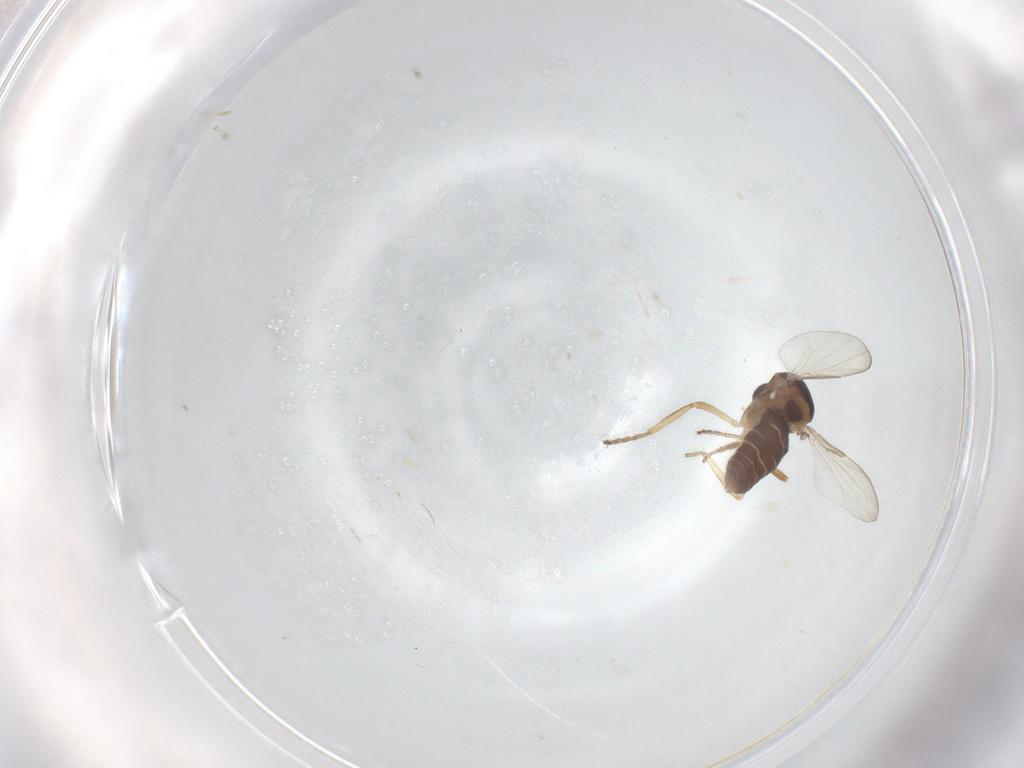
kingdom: Animalia
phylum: Arthropoda
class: Insecta
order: Diptera
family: Ceratopogonidae
